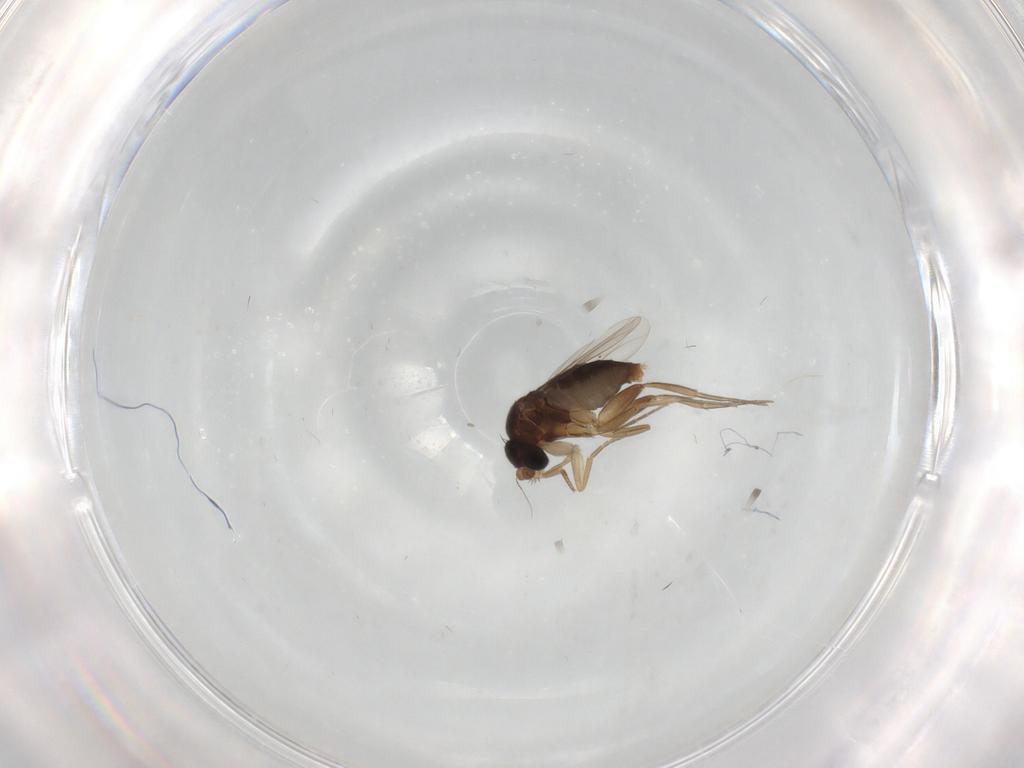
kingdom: Animalia
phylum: Arthropoda
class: Insecta
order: Diptera
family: Phoridae
